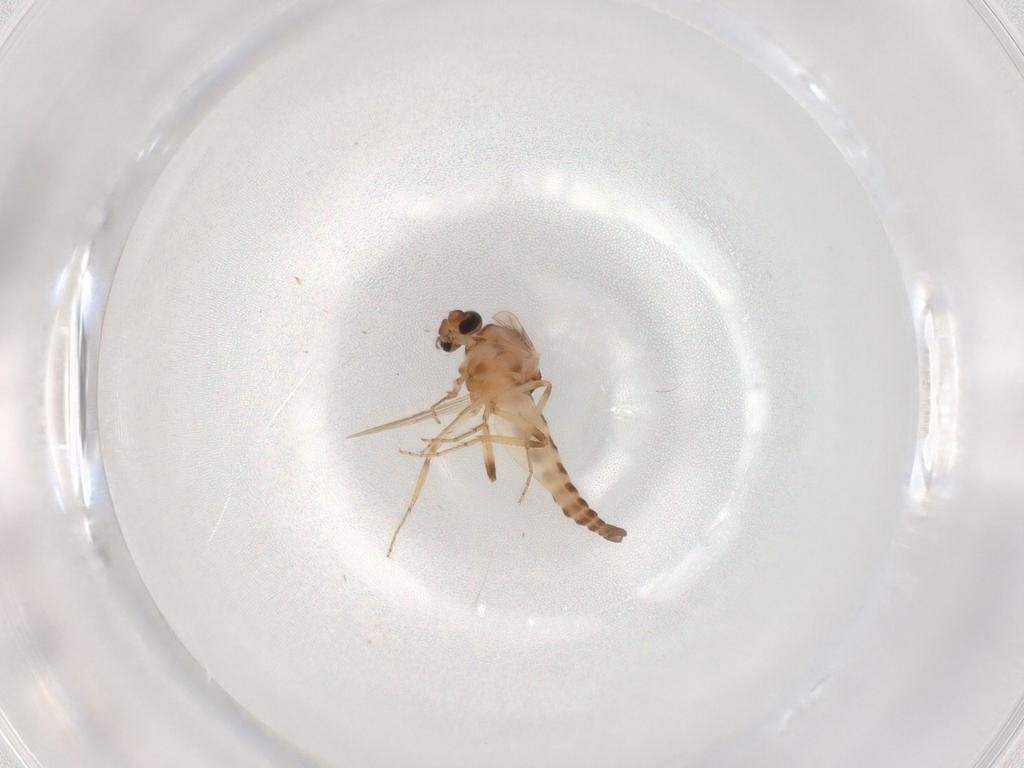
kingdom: Animalia
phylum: Arthropoda
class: Insecta
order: Diptera
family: Ceratopogonidae
